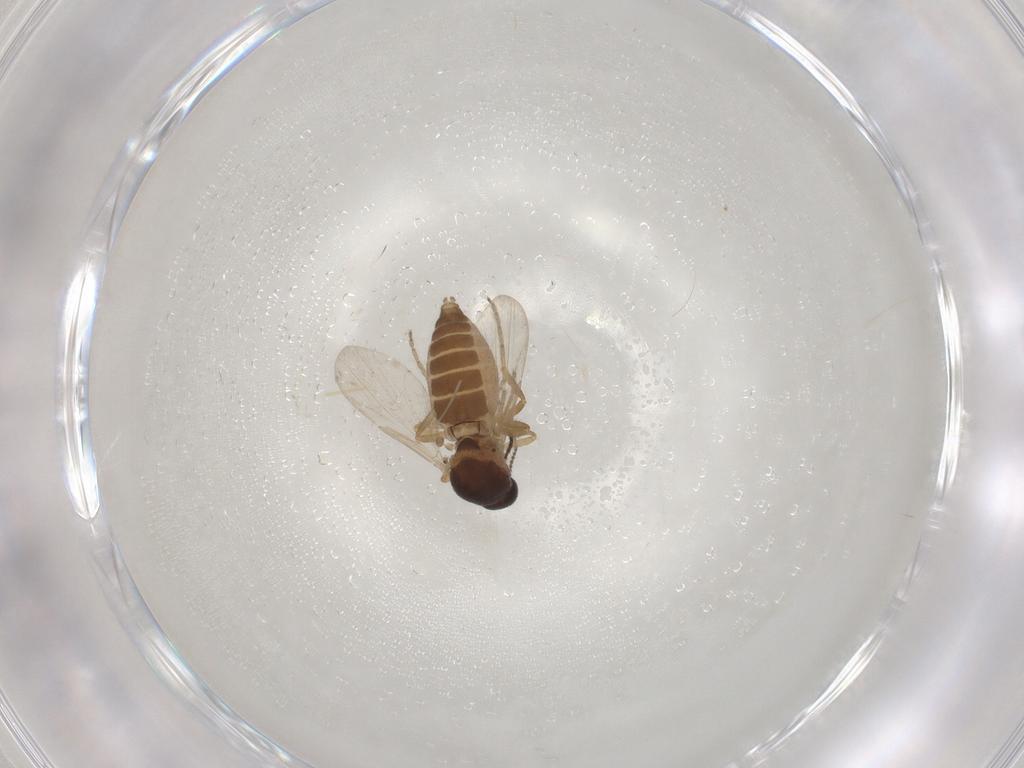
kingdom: Animalia
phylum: Arthropoda
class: Insecta
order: Diptera
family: Ceratopogonidae
